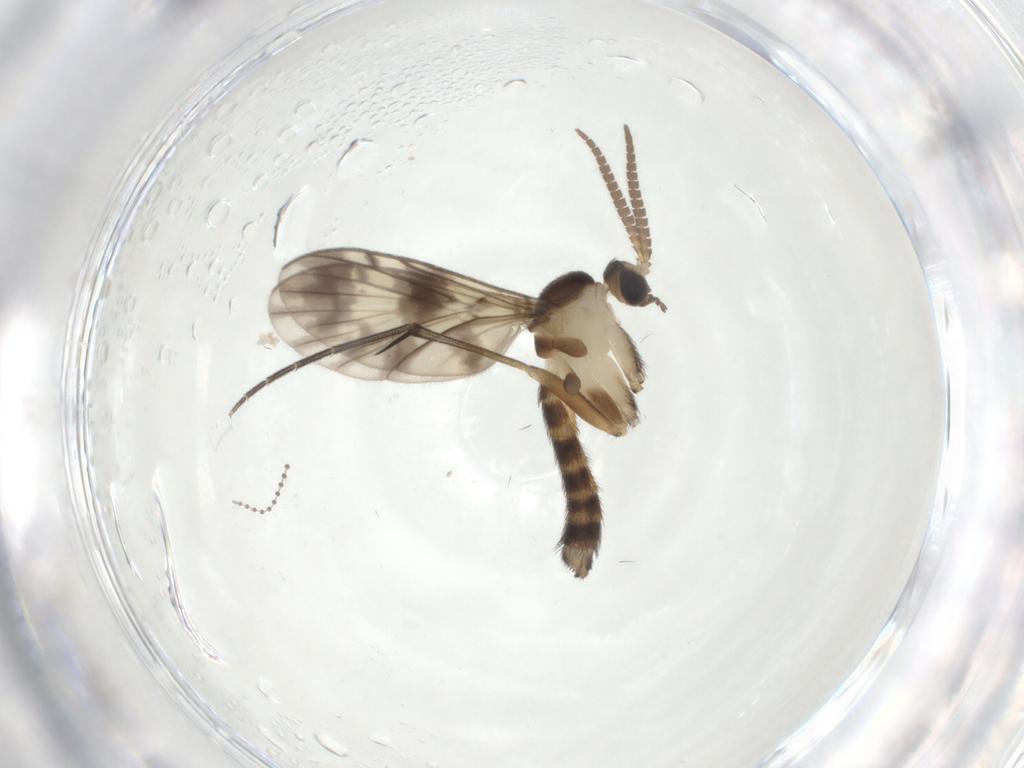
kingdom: Animalia
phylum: Arthropoda
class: Insecta
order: Diptera
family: Keroplatidae
